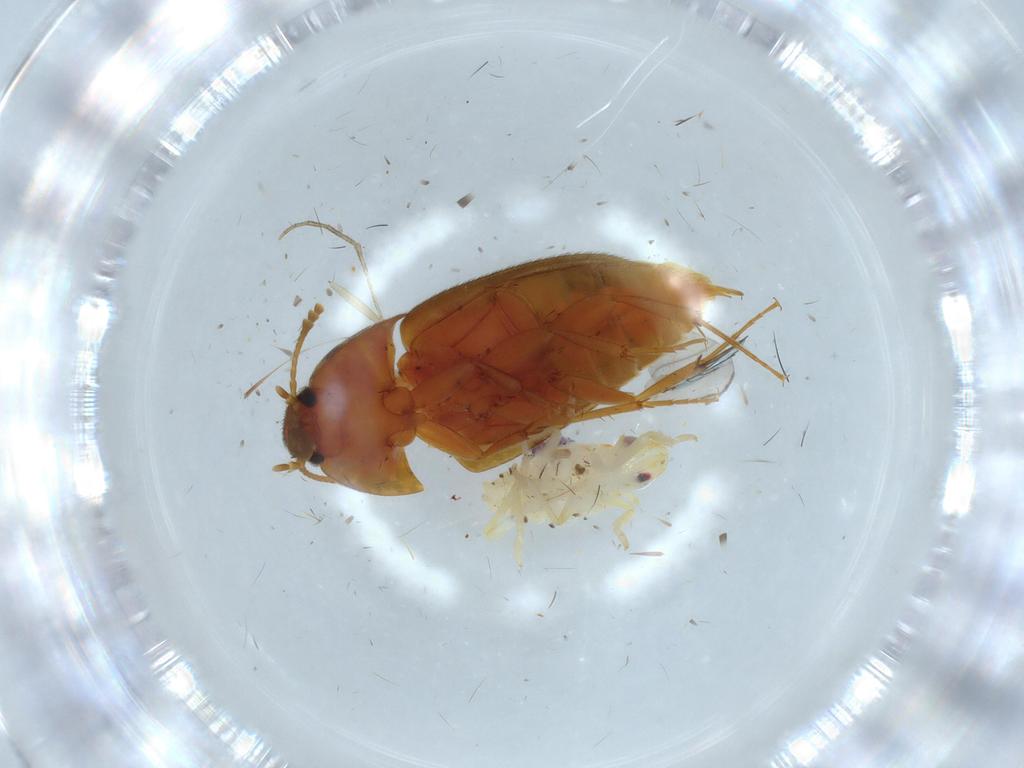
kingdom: Animalia
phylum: Arthropoda
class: Insecta
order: Coleoptera
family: Mycetophagidae
